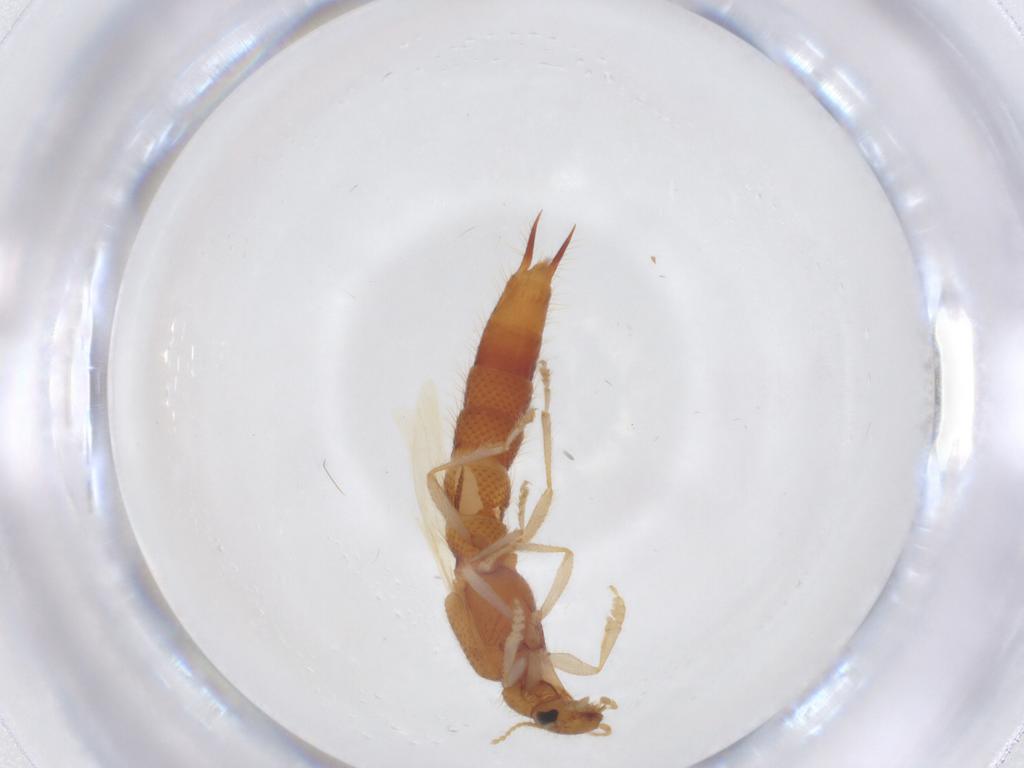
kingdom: Animalia
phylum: Arthropoda
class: Insecta
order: Coleoptera
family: Staphylinidae
